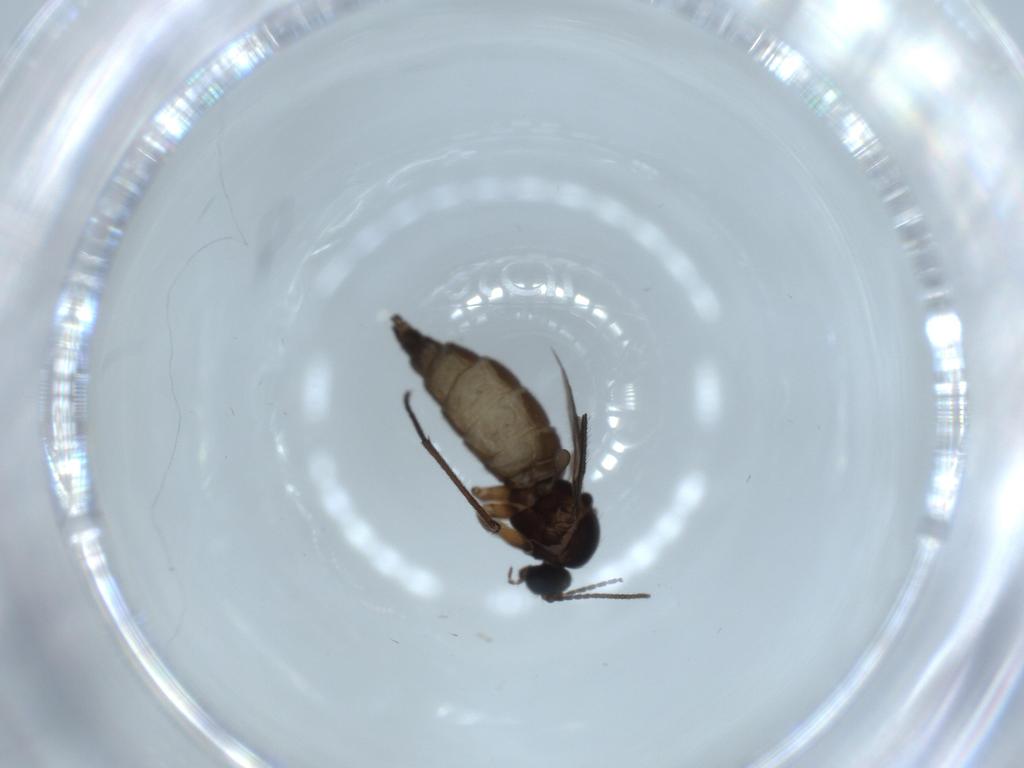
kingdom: Animalia
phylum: Arthropoda
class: Insecta
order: Diptera
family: Sciaridae
